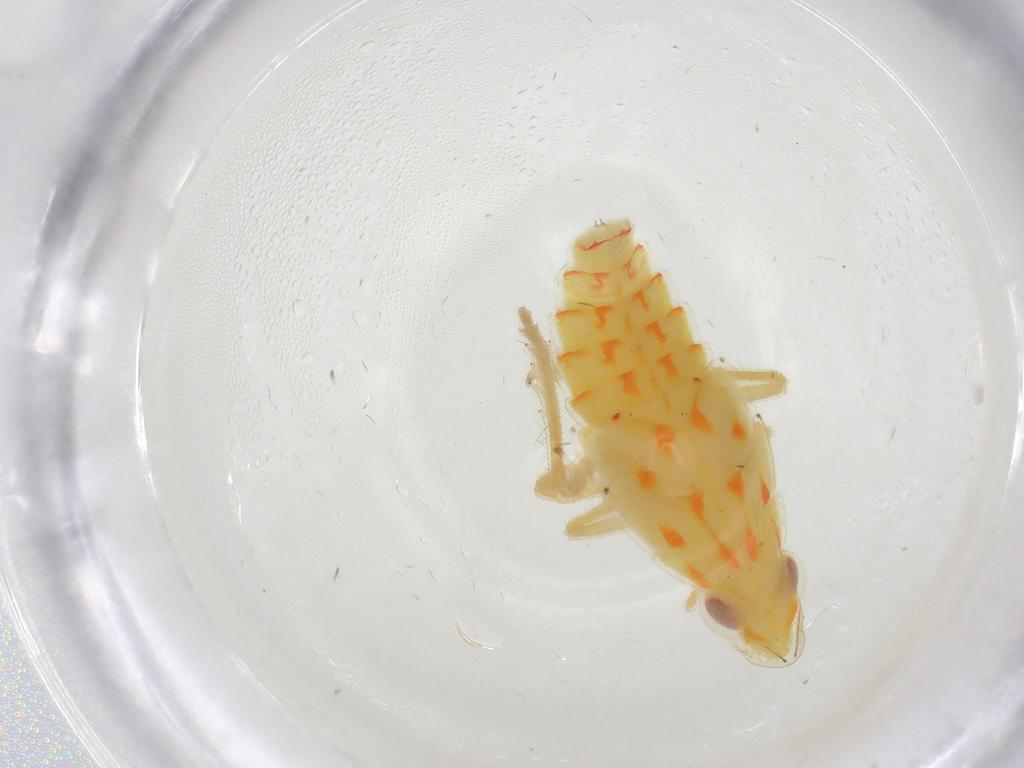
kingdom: Animalia
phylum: Arthropoda
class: Insecta
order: Hemiptera
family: Tropiduchidae
